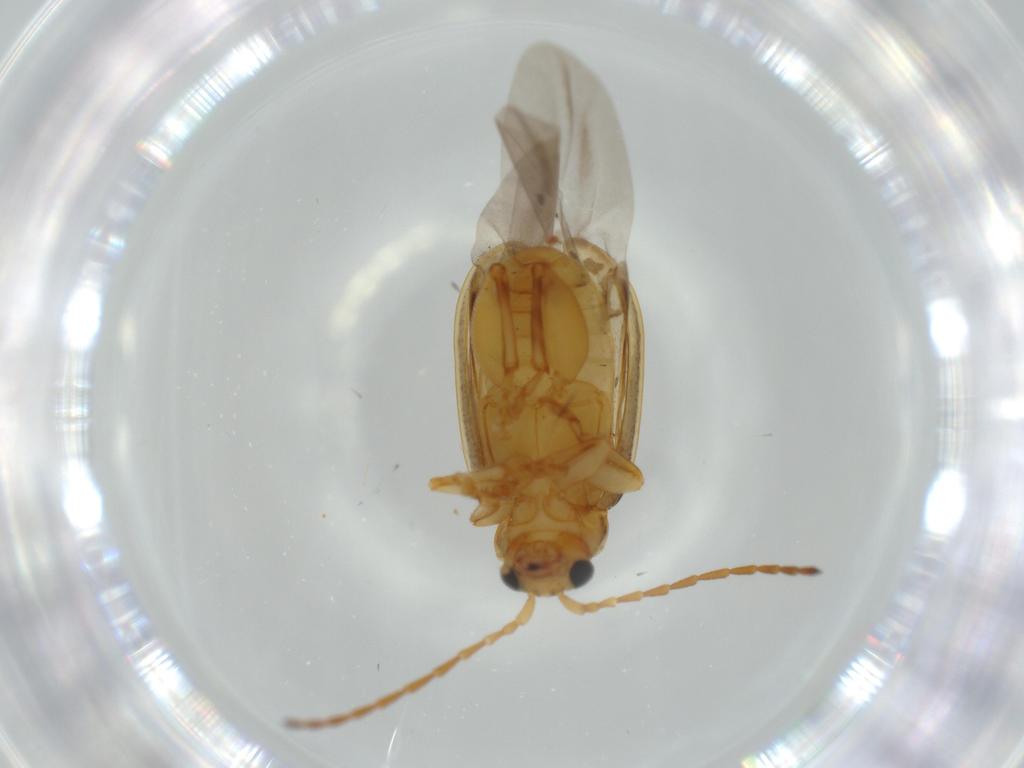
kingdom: Animalia
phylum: Arthropoda
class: Insecta
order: Coleoptera
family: Chrysomelidae
